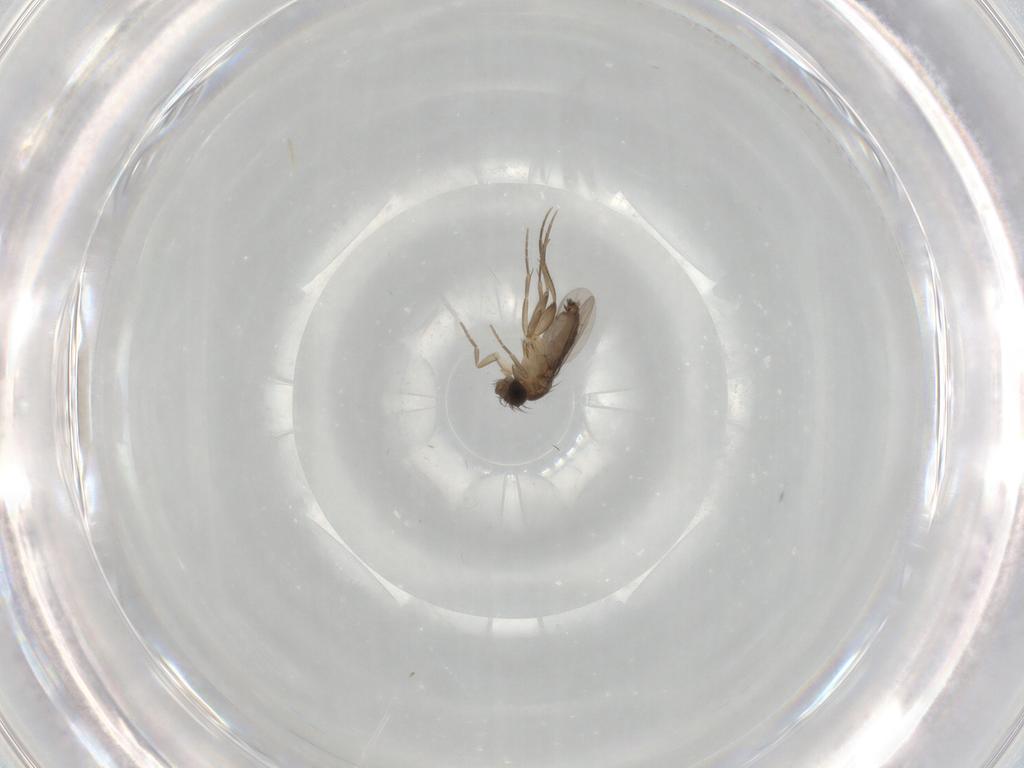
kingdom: Animalia
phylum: Arthropoda
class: Insecta
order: Diptera
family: Phoridae
